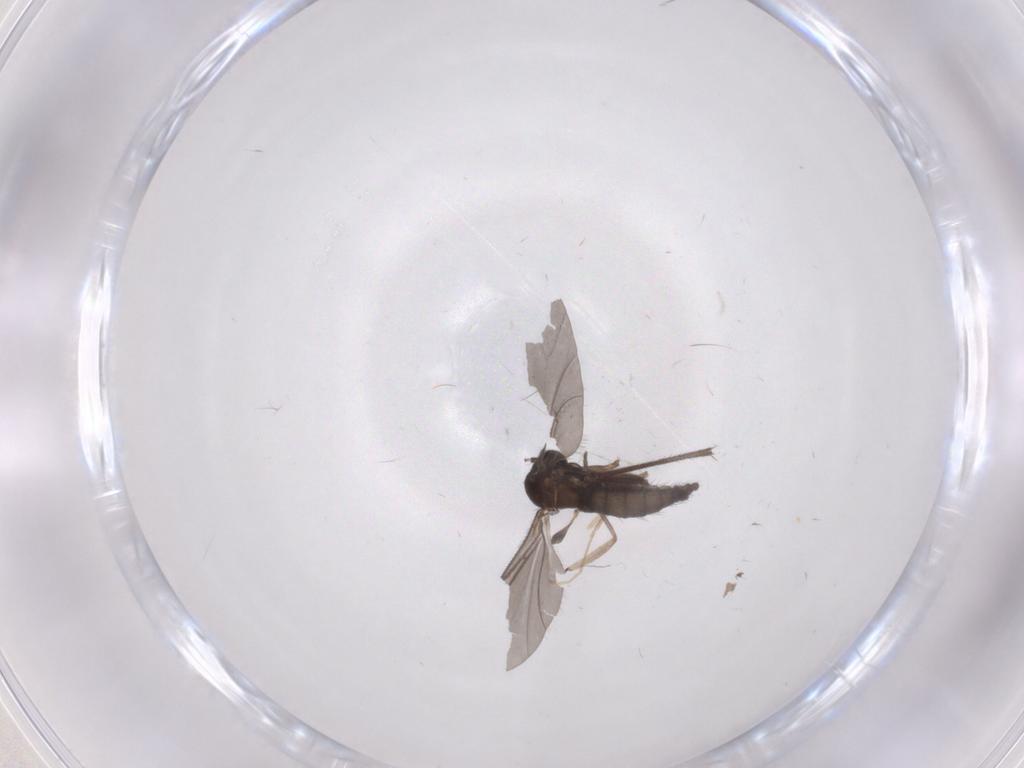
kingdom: Animalia
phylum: Arthropoda
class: Insecta
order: Diptera
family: Sciaridae
